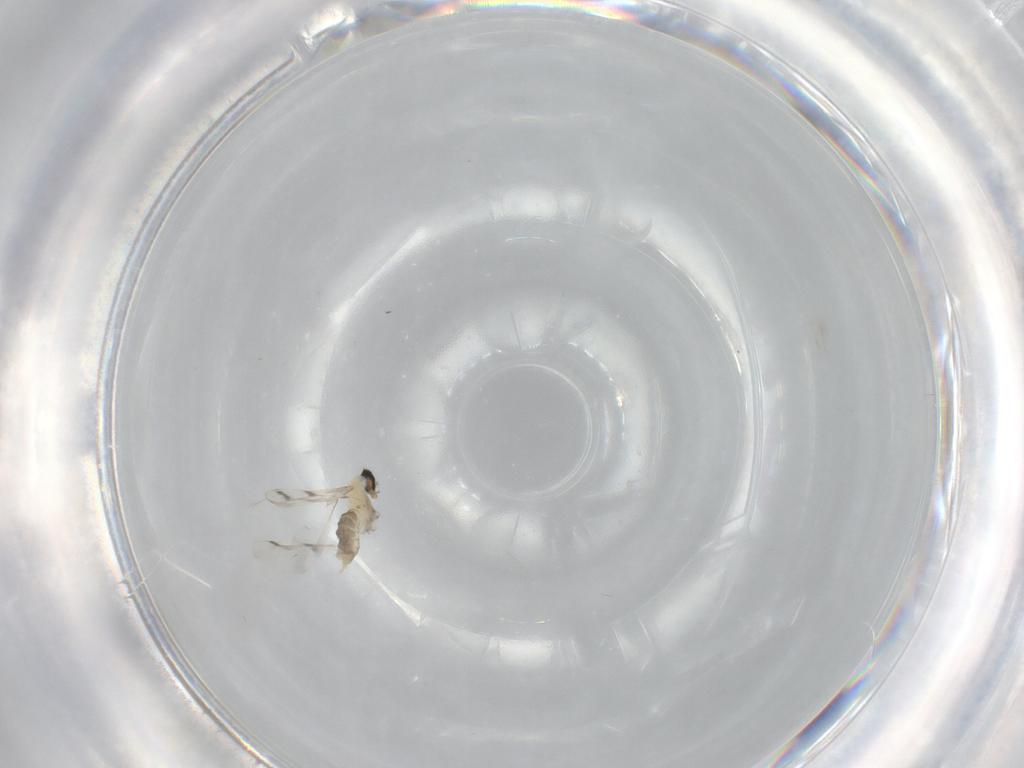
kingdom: Animalia
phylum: Arthropoda
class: Insecta
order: Diptera
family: Cecidomyiidae
